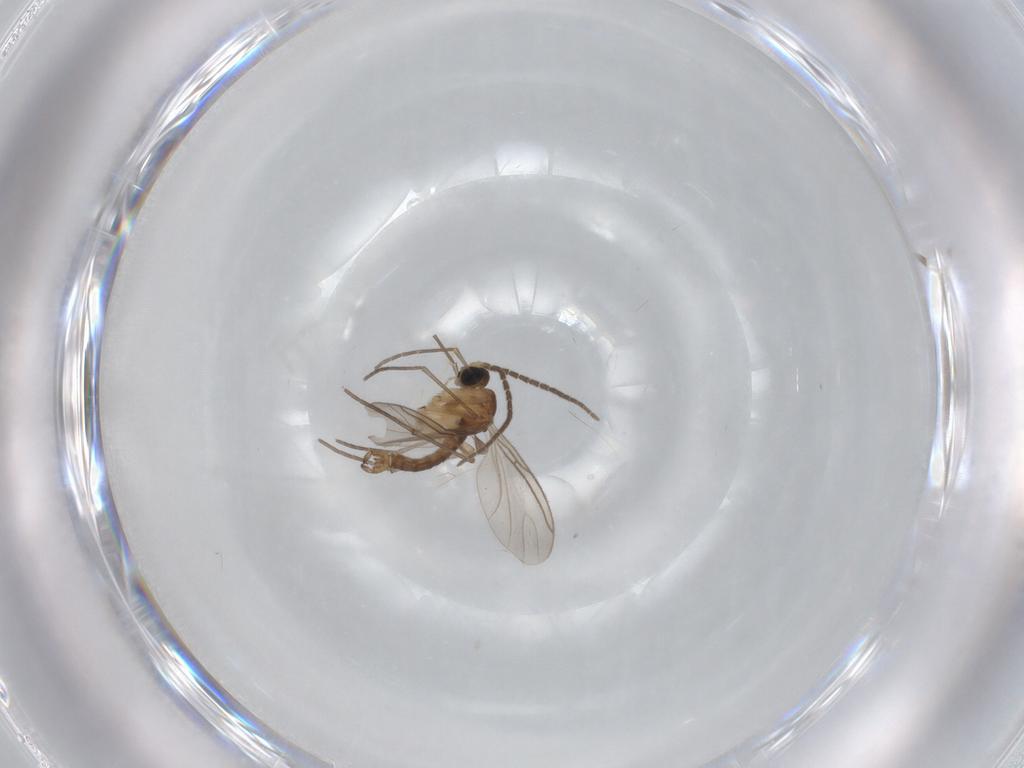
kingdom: Animalia
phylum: Arthropoda
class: Insecta
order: Diptera
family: Sciaridae
